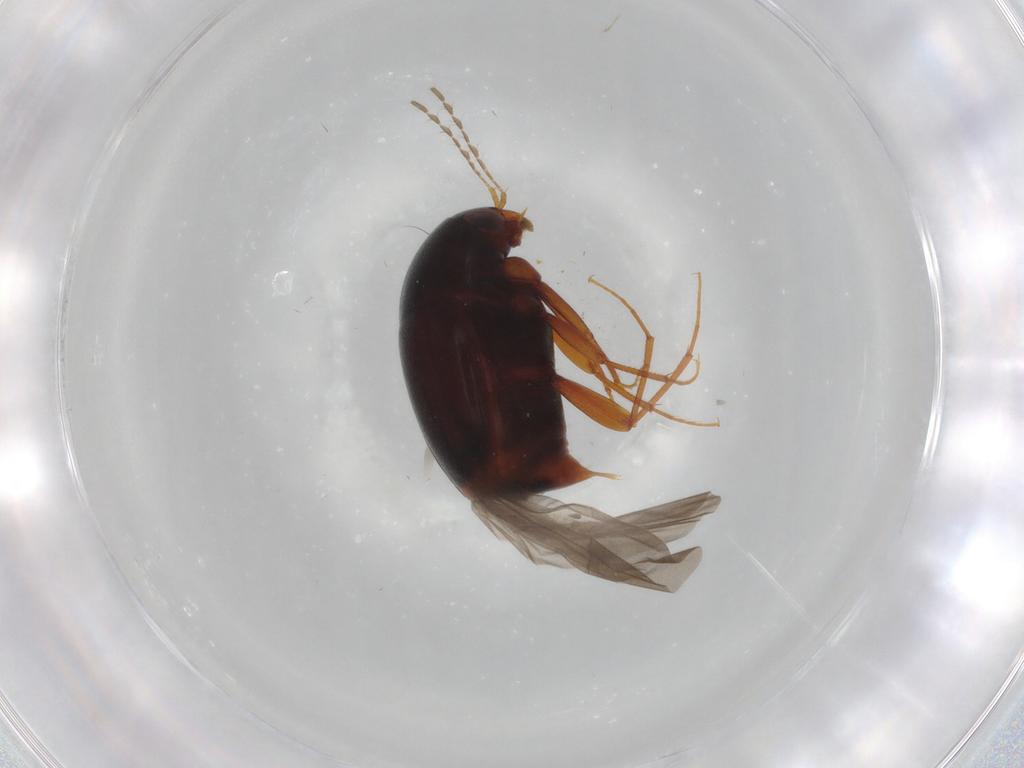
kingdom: Animalia
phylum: Arthropoda
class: Insecta
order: Coleoptera
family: Staphylinidae
